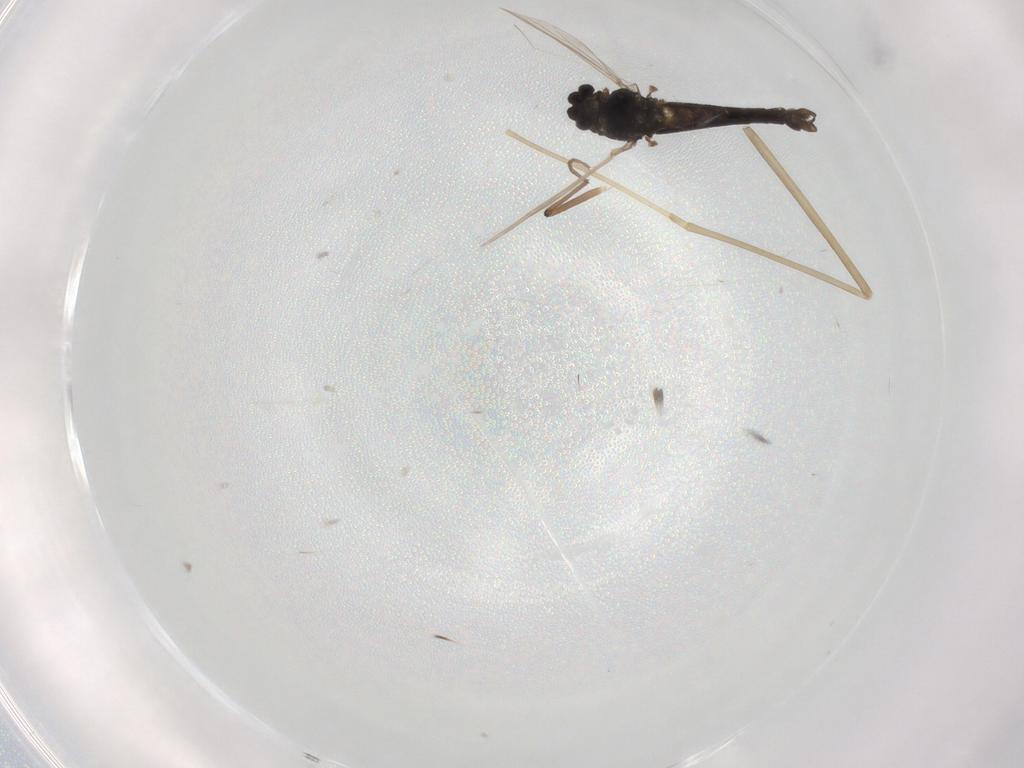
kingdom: Animalia
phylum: Arthropoda
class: Insecta
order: Diptera
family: Cecidomyiidae
